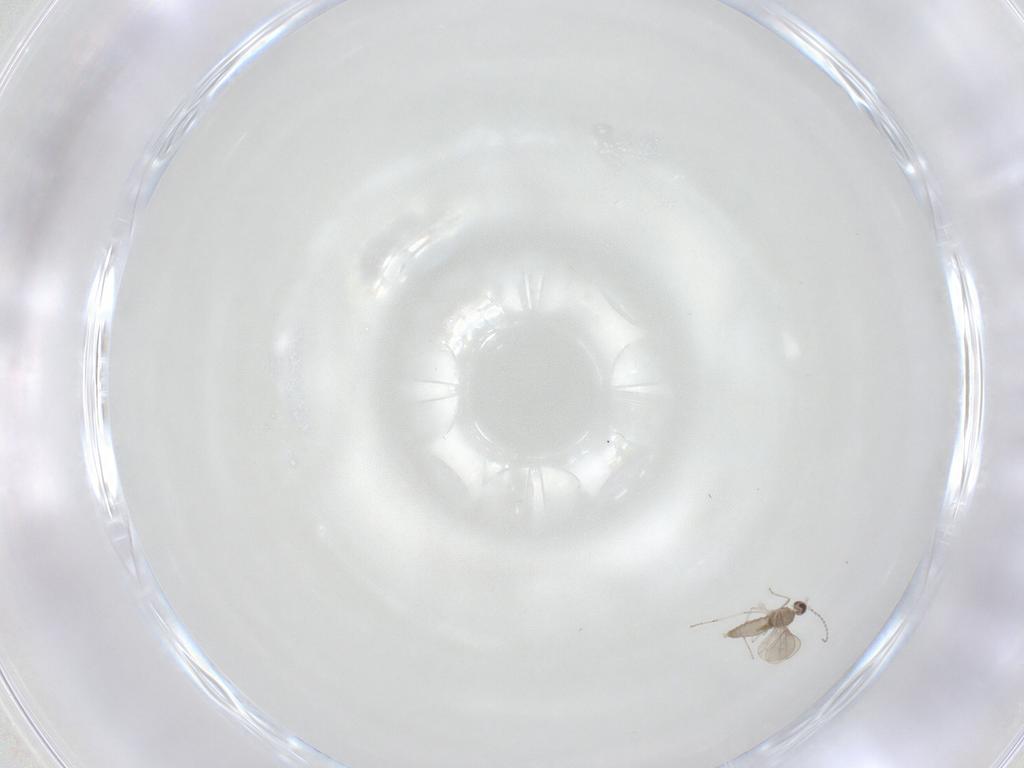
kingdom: Animalia
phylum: Arthropoda
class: Insecta
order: Diptera
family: Cecidomyiidae
